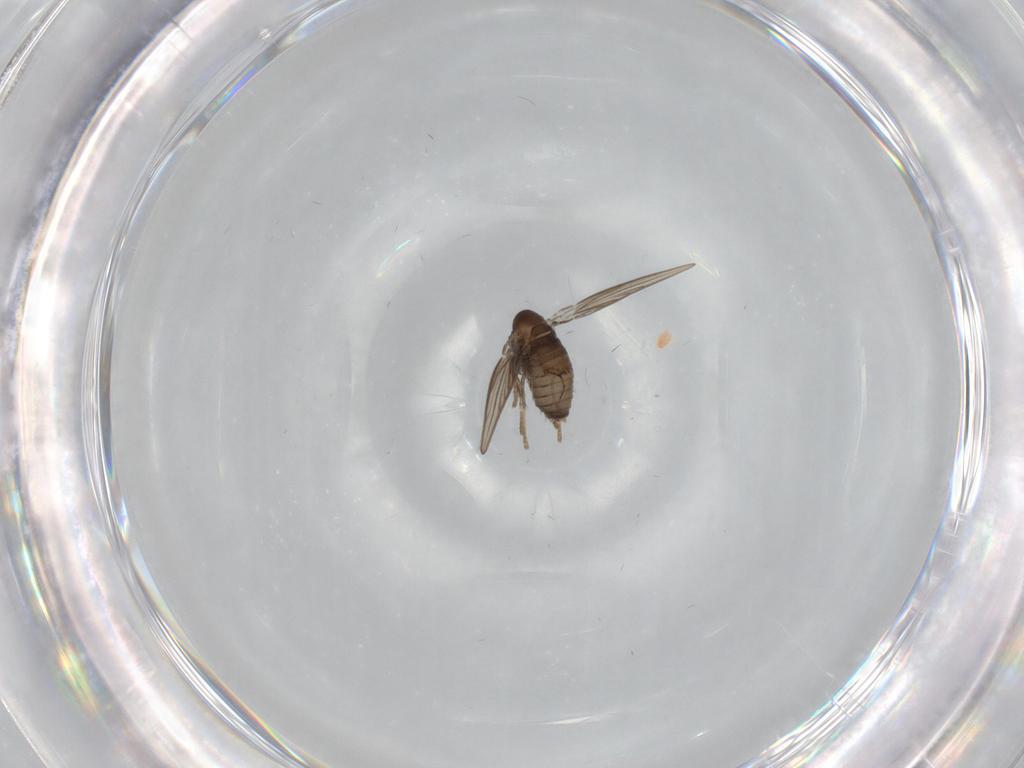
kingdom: Animalia
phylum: Arthropoda
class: Insecta
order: Diptera
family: Psychodidae
